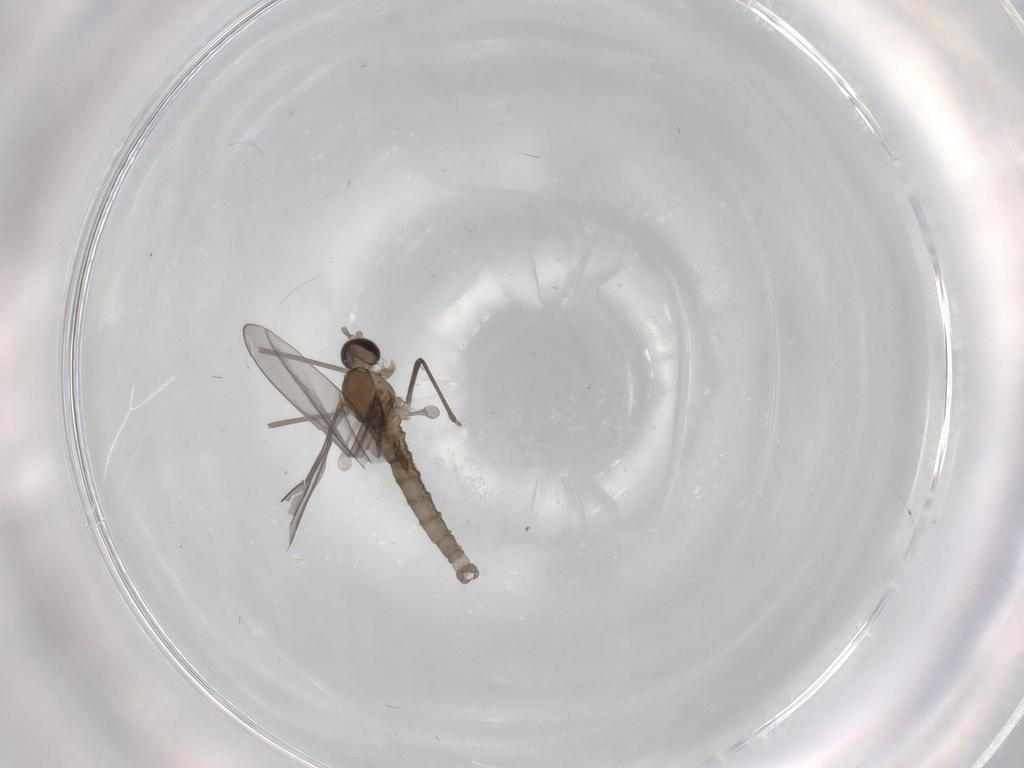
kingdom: Animalia
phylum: Arthropoda
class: Insecta
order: Diptera
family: Cecidomyiidae
